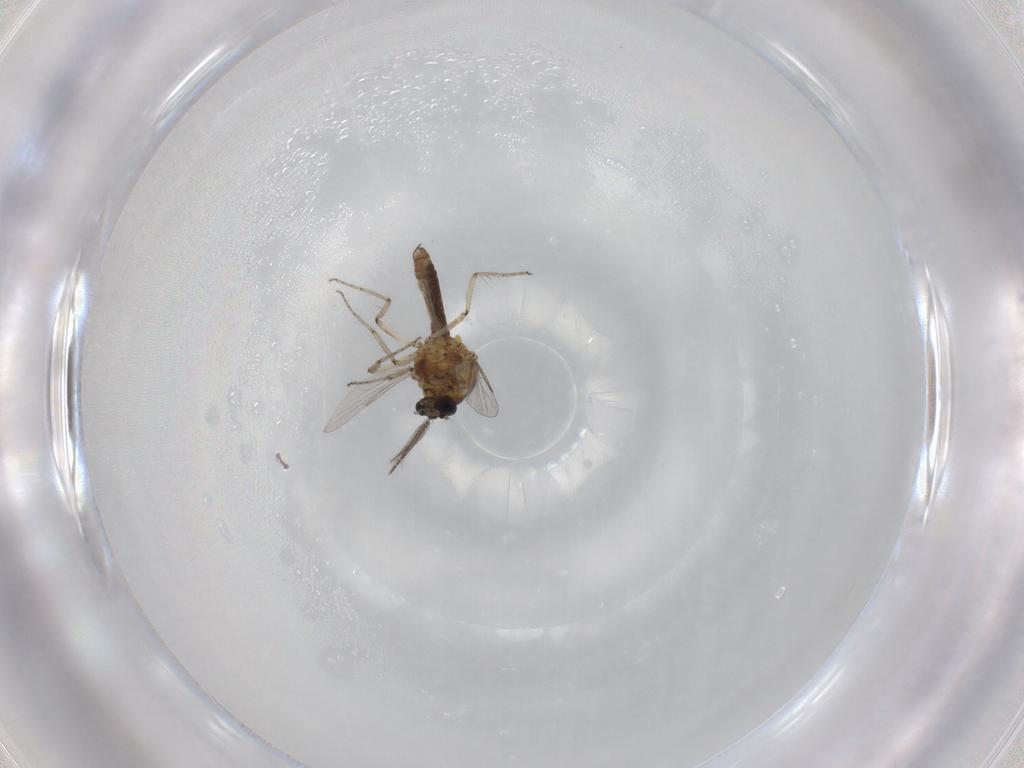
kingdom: Animalia
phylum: Arthropoda
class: Insecta
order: Diptera
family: Ceratopogonidae
